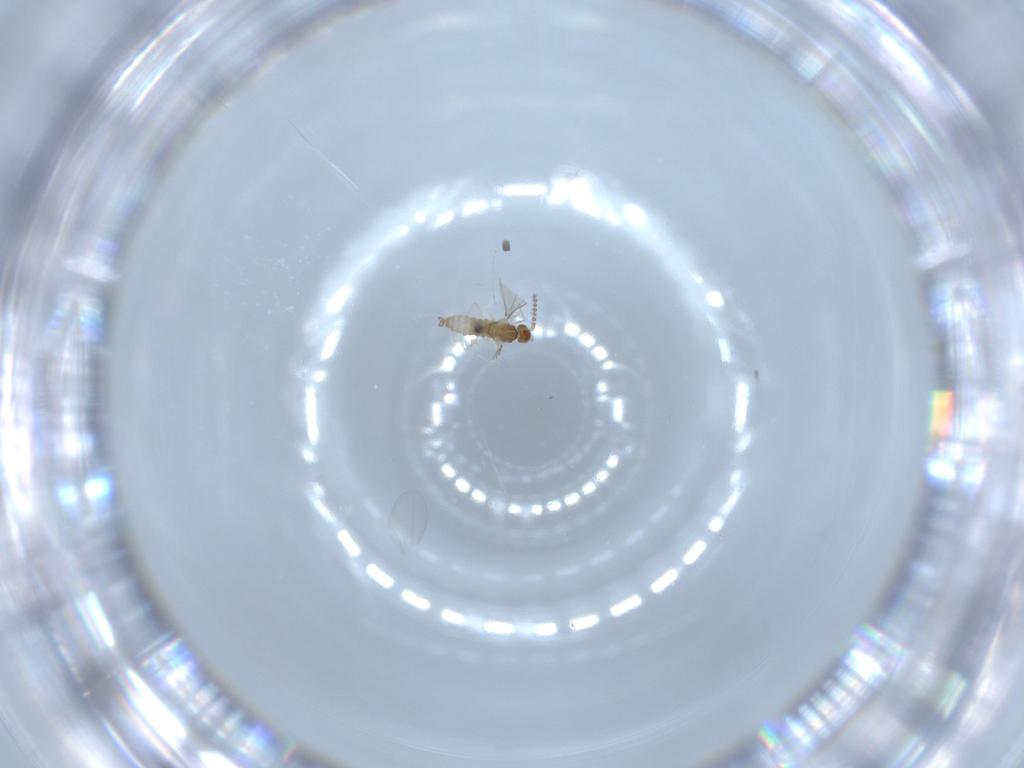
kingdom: Animalia
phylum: Arthropoda
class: Insecta
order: Diptera
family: Cecidomyiidae
